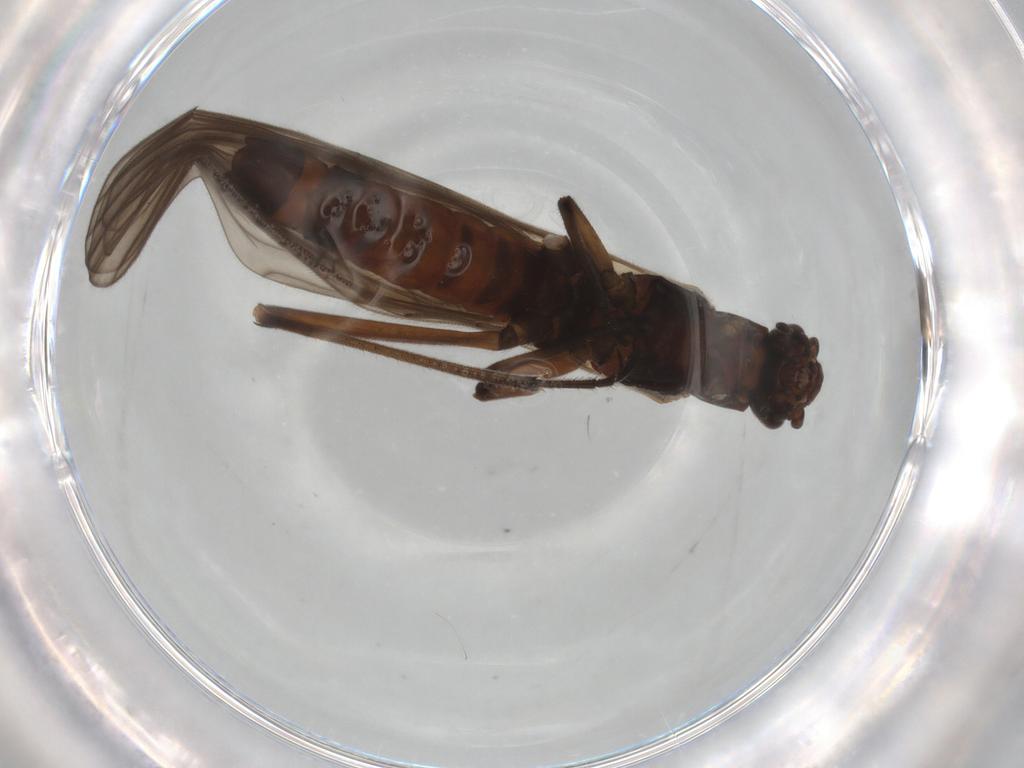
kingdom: Animalia
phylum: Arthropoda
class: Insecta
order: Plecoptera
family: Notonemouridae
